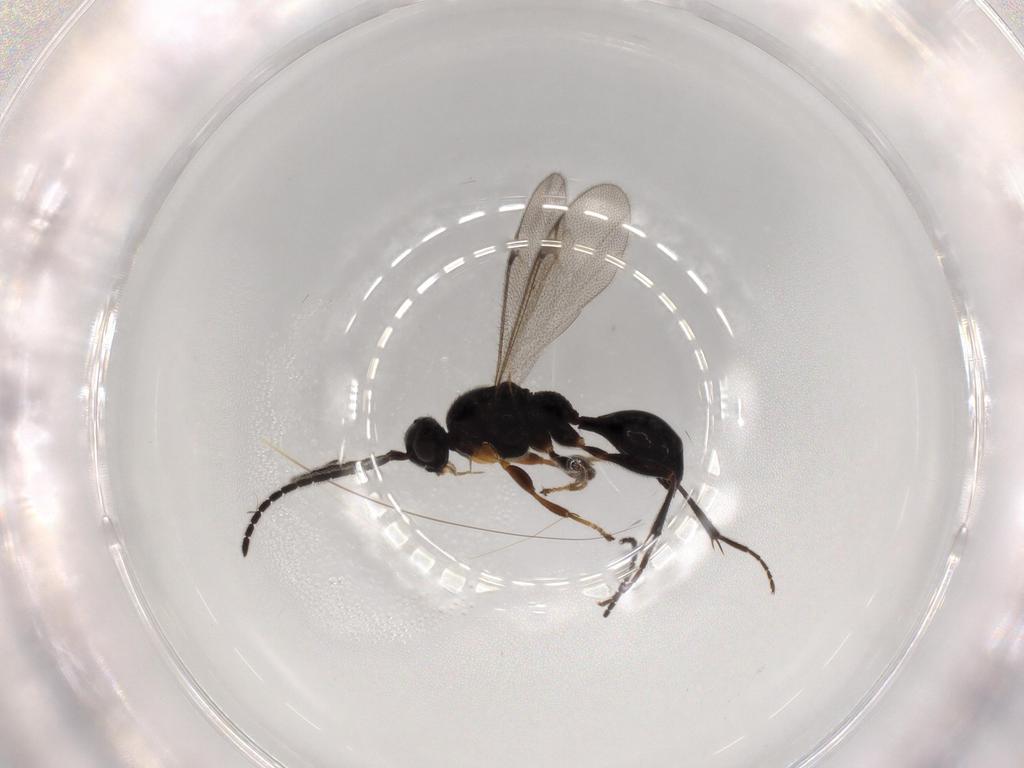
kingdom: Animalia
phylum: Arthropoda
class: Insecta
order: Hymenoptera
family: Proctotrupidae
